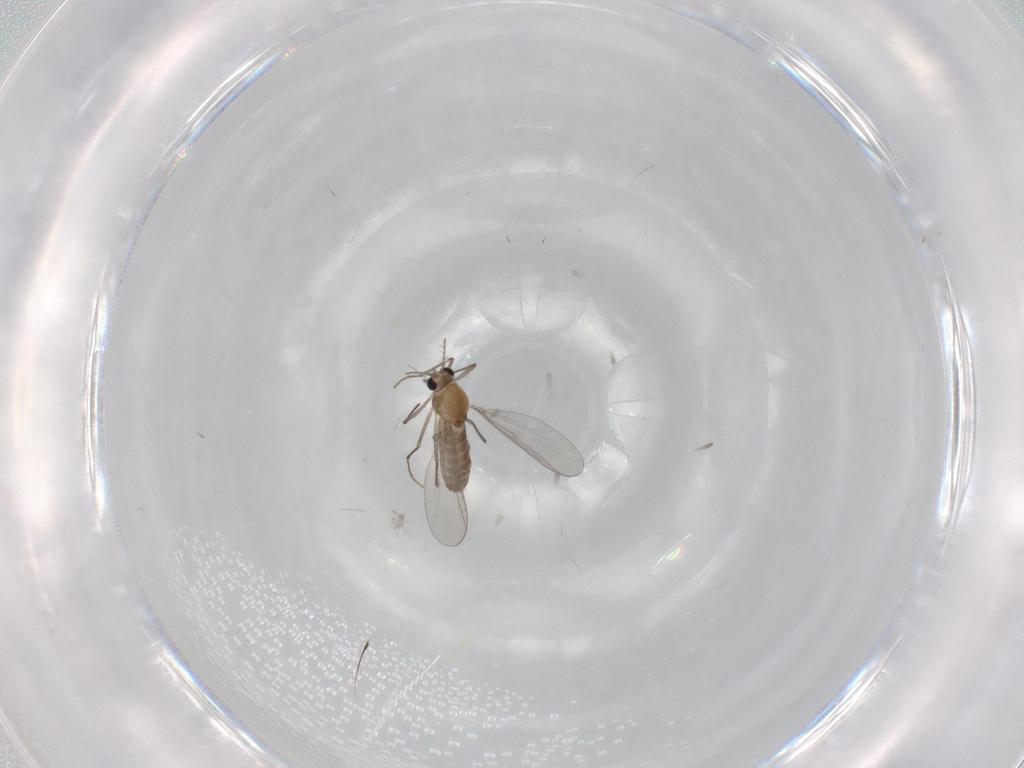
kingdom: Animalia
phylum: Arthropoda
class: Insecta
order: Diptera
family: Chironomidae
